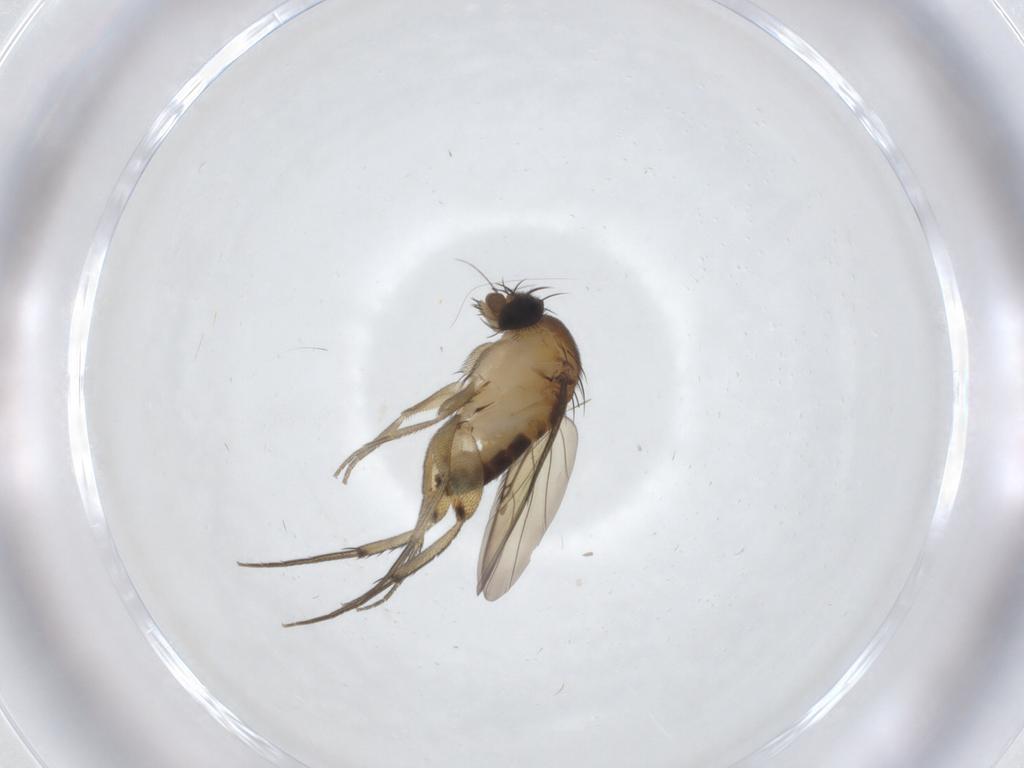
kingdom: Animalia
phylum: Arthropoda
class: Insecta
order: Diptera
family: Phoridae
